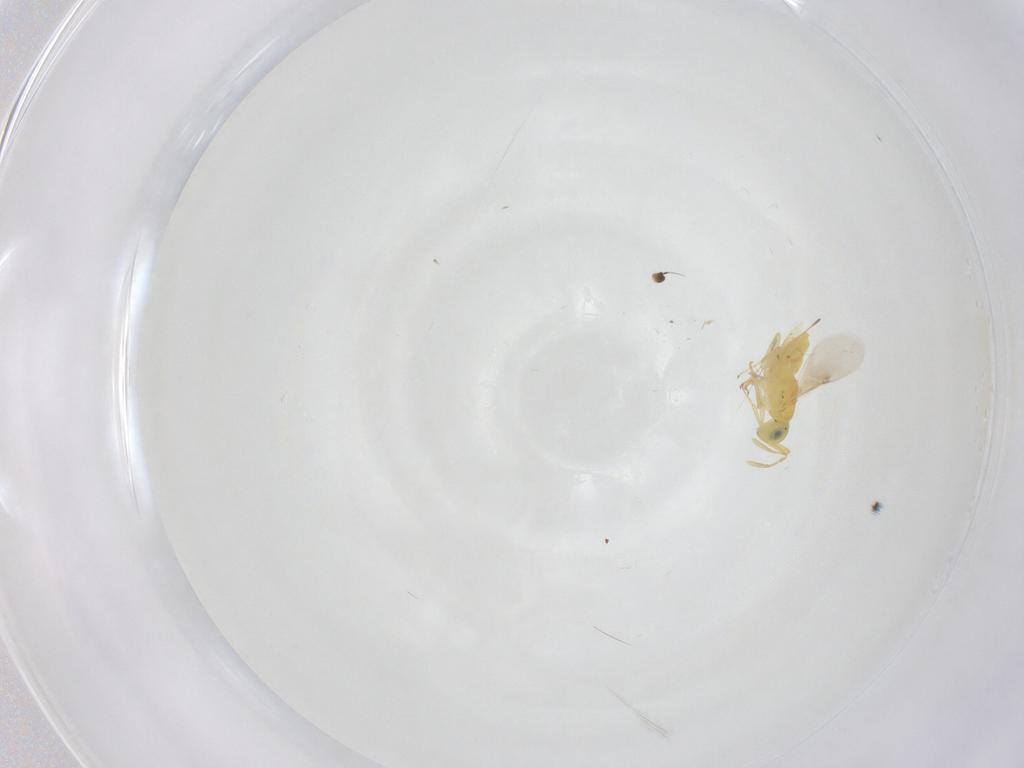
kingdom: Animalia
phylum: Arthropoda
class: Insecta
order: Hymenoptera
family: Encyrtidae
